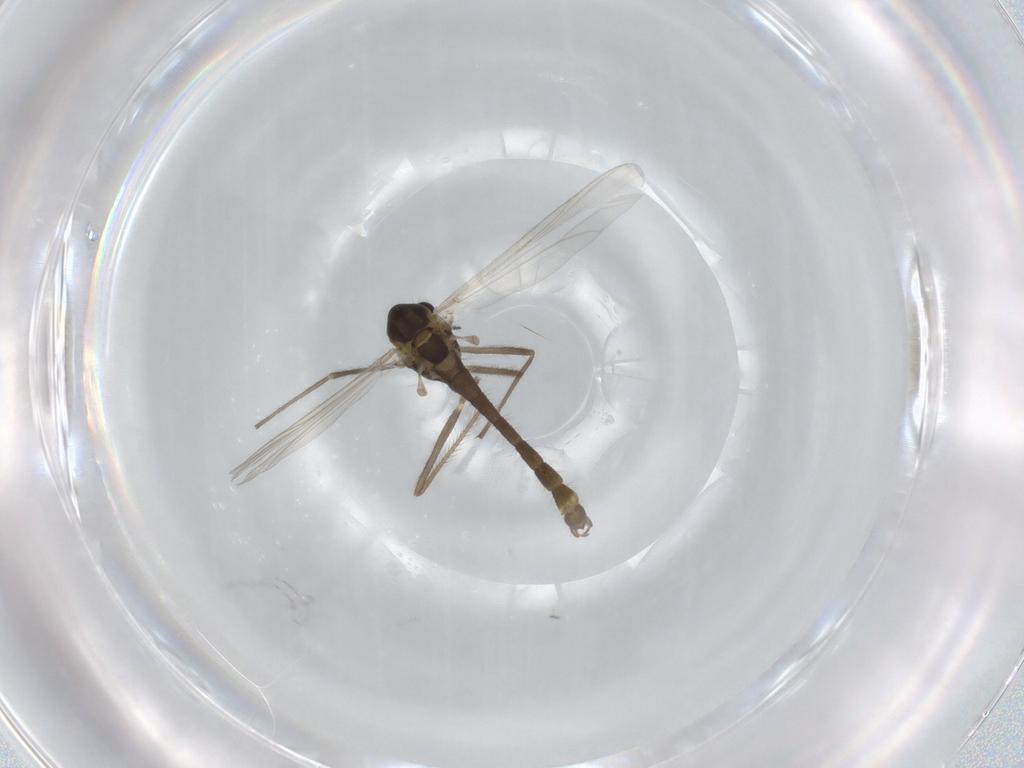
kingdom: Animalia
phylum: Arthropoda
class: Insecta
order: Diptera
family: Chironomidae
